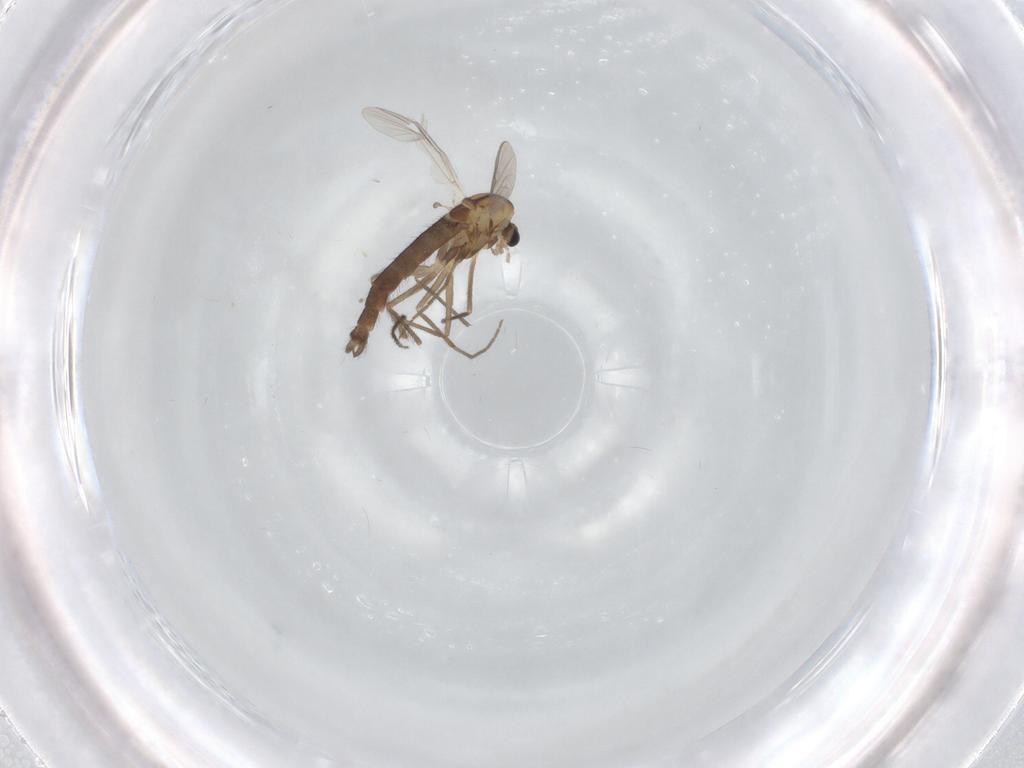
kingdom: Animalia
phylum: Arthropoda
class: Insecta
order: Diptera
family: Chironomidae
